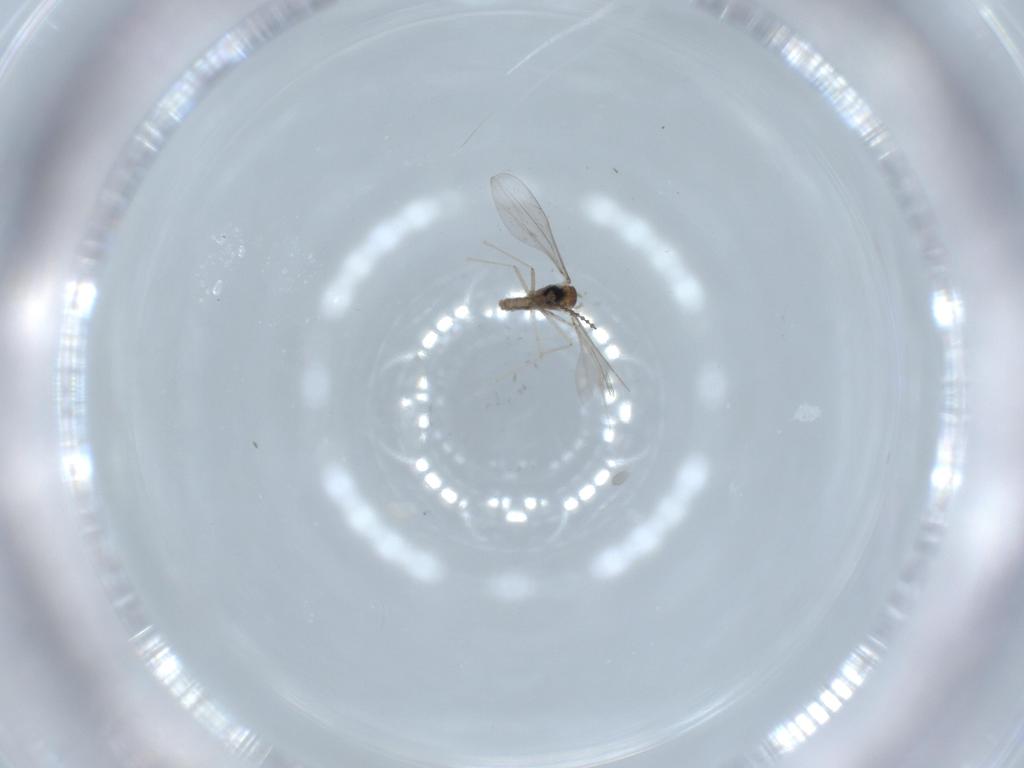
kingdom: Animalia
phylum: Arthropoda
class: Insecta
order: Diptera
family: Cecidomyiidae
